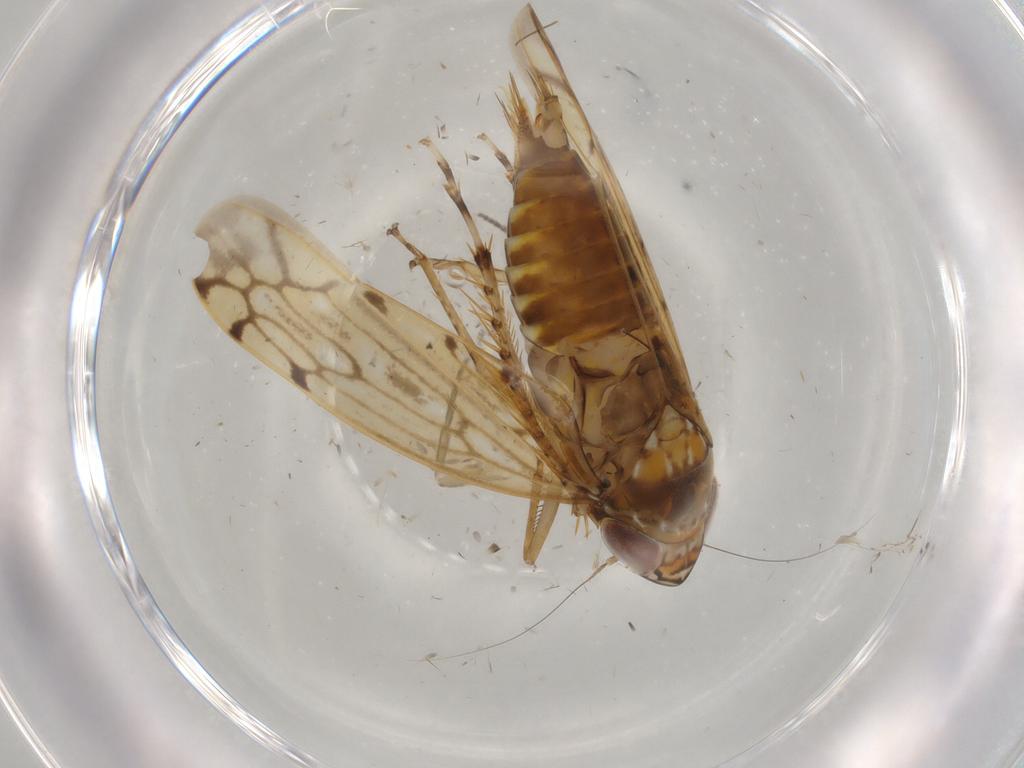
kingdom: Animalia
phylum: Arthropoda
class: Insecta
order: Hemiptera
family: Cicadellidae
